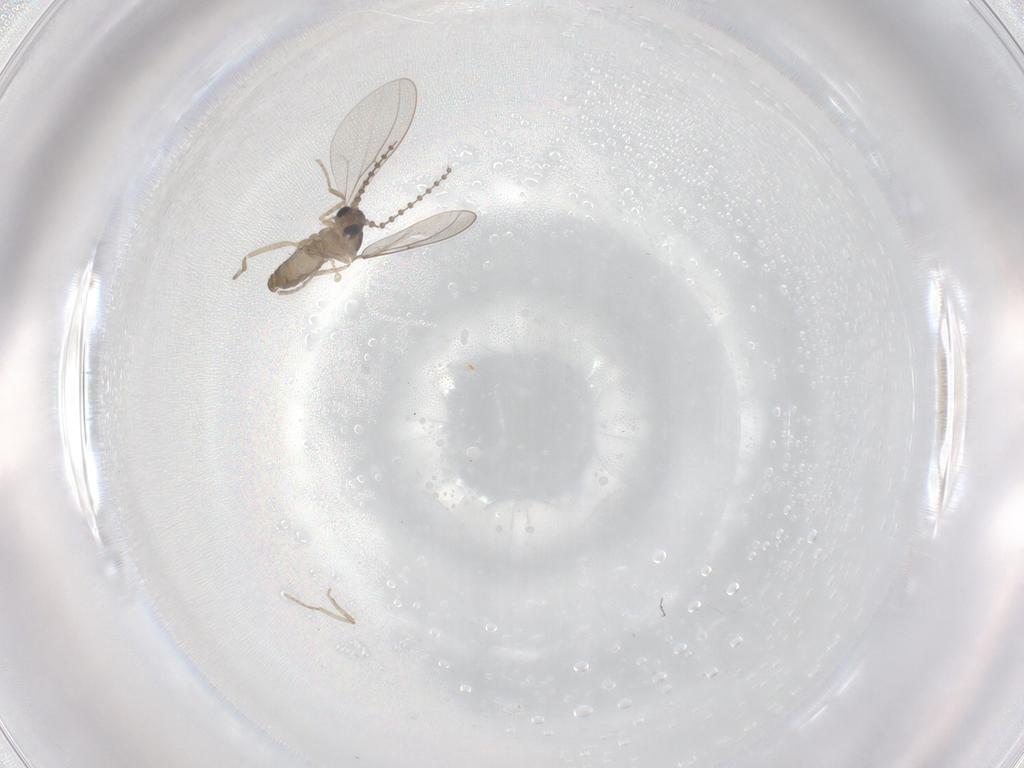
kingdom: Animalia
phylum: Arthropoda
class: Insecta
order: Diptera
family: Cecidomyiidae
